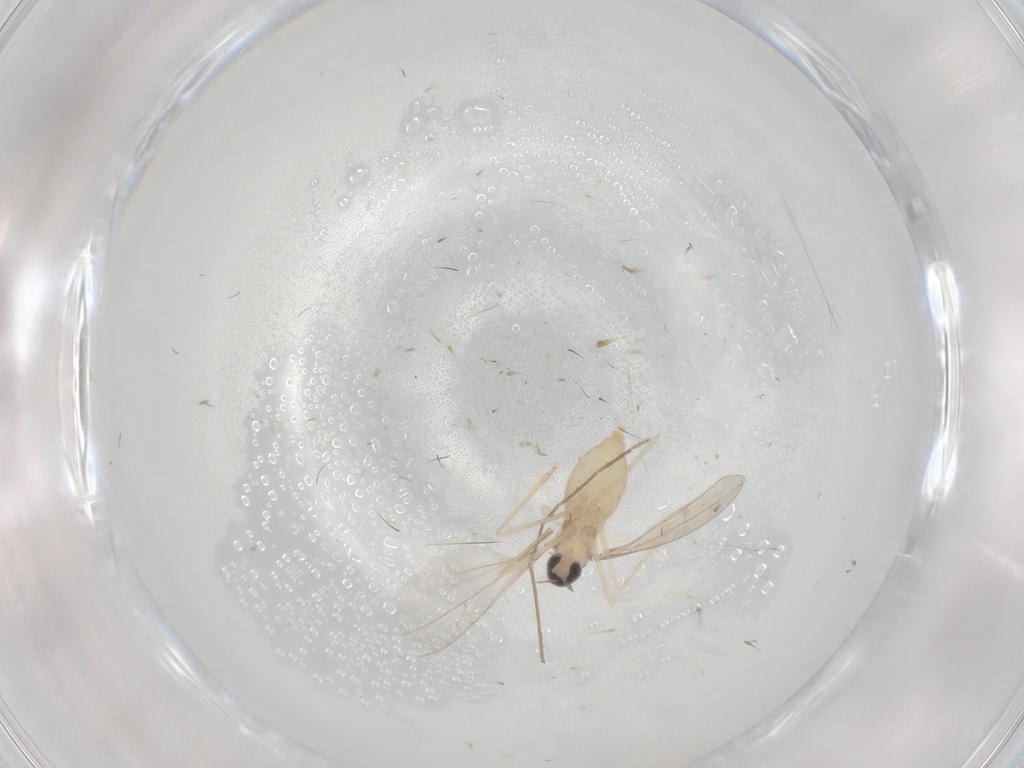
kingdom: Animalia
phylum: Arthropoda
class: Insecta
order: Diptera
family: Cecidomyiidae
